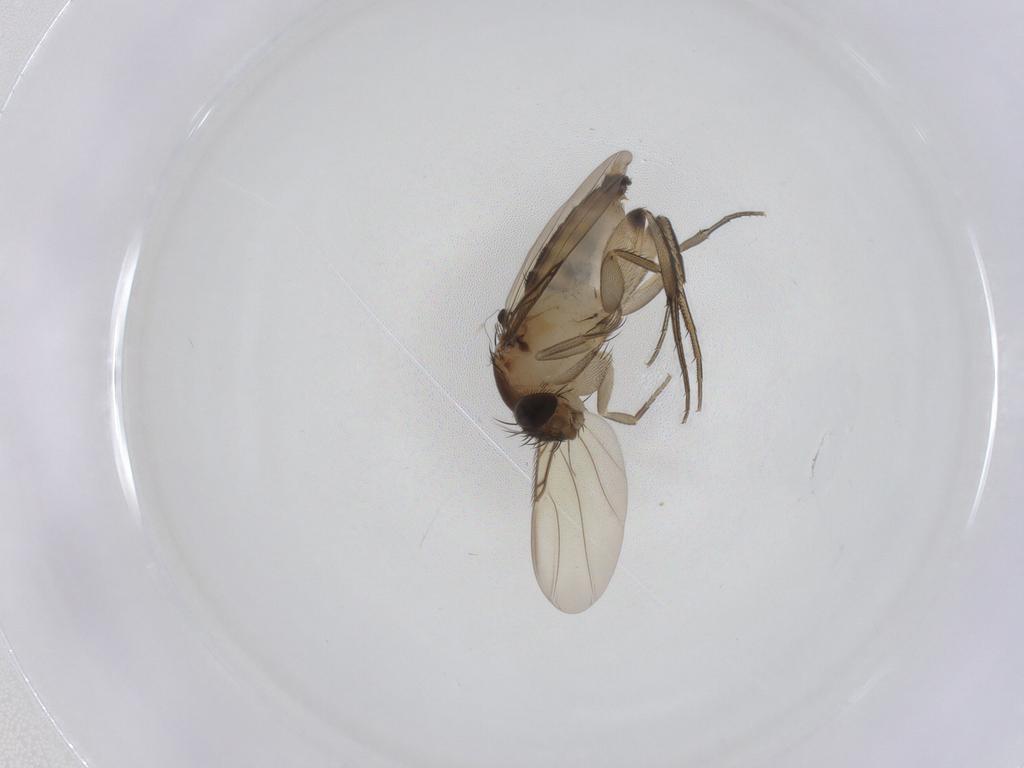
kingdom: Animalia
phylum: Arthropoda
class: Insecta
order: Diptera
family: Phoridae
